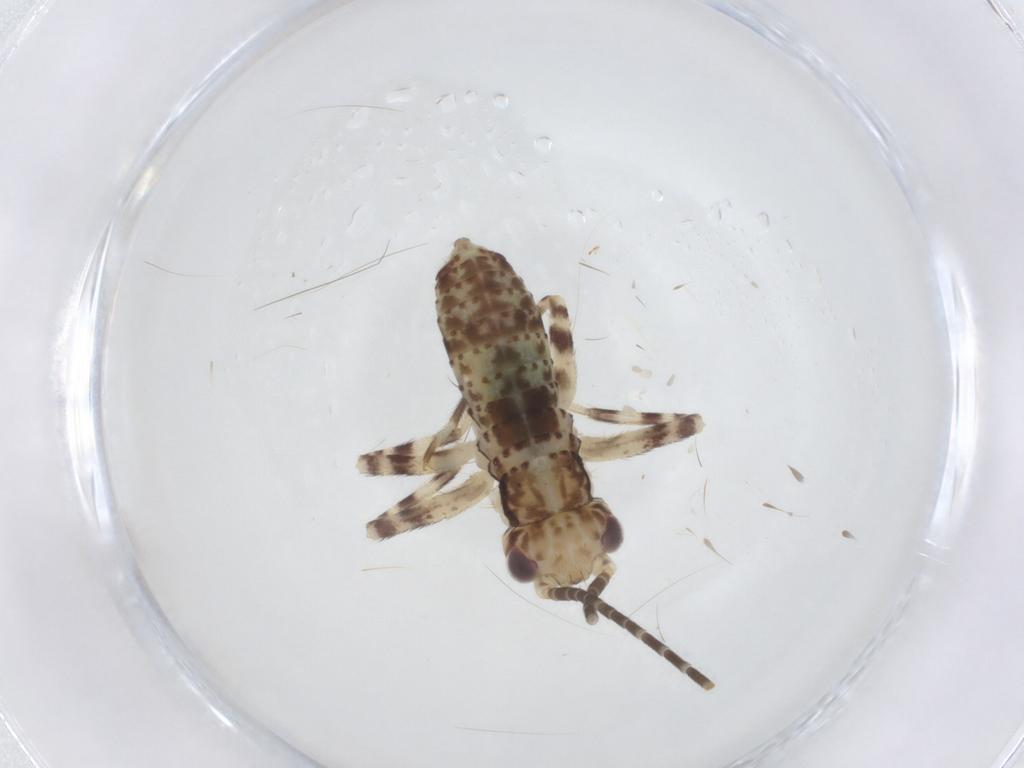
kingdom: Animalia
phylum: Arthropoda
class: Insecta
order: Orthoptera
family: Gryllidae
